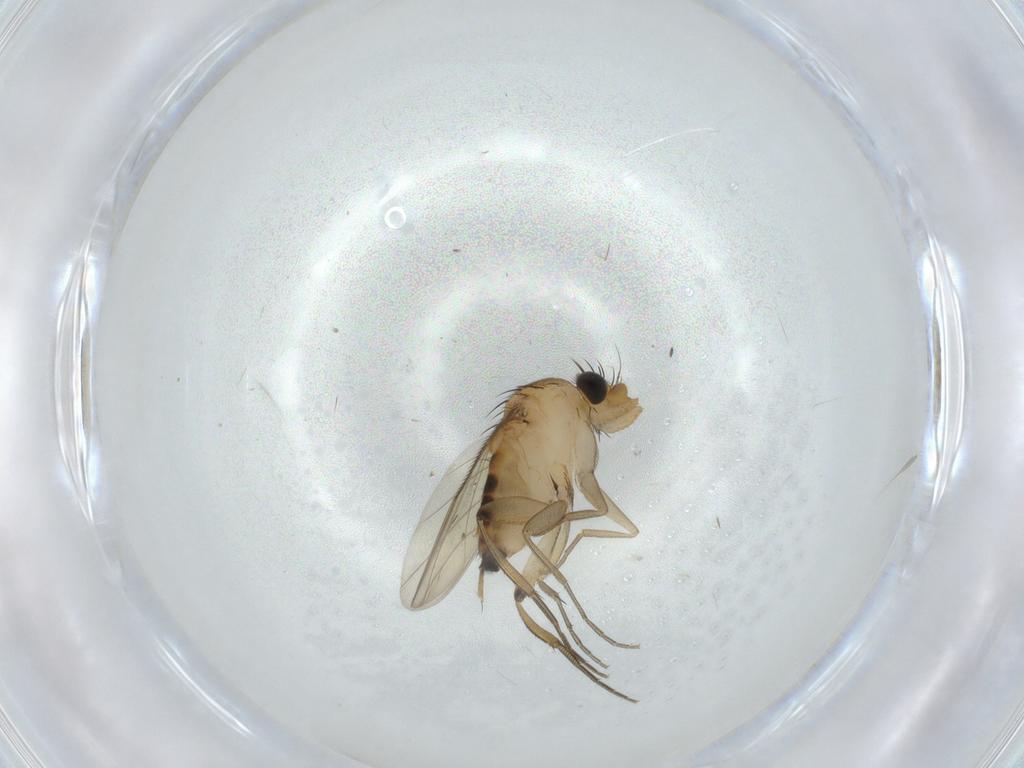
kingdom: Animalia
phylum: Arthropoda
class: Insecta
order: Diptera
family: Phoridae
